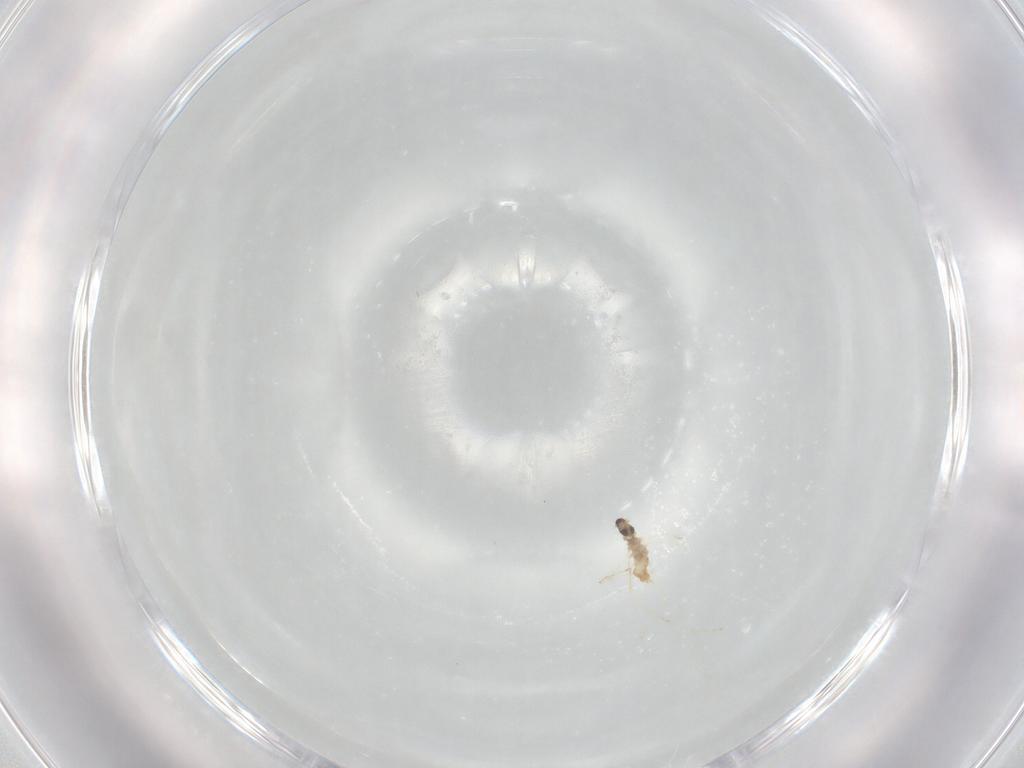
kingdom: Animalia
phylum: Arthropoda
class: Insecta
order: Diptera
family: Cecidomyiidae
